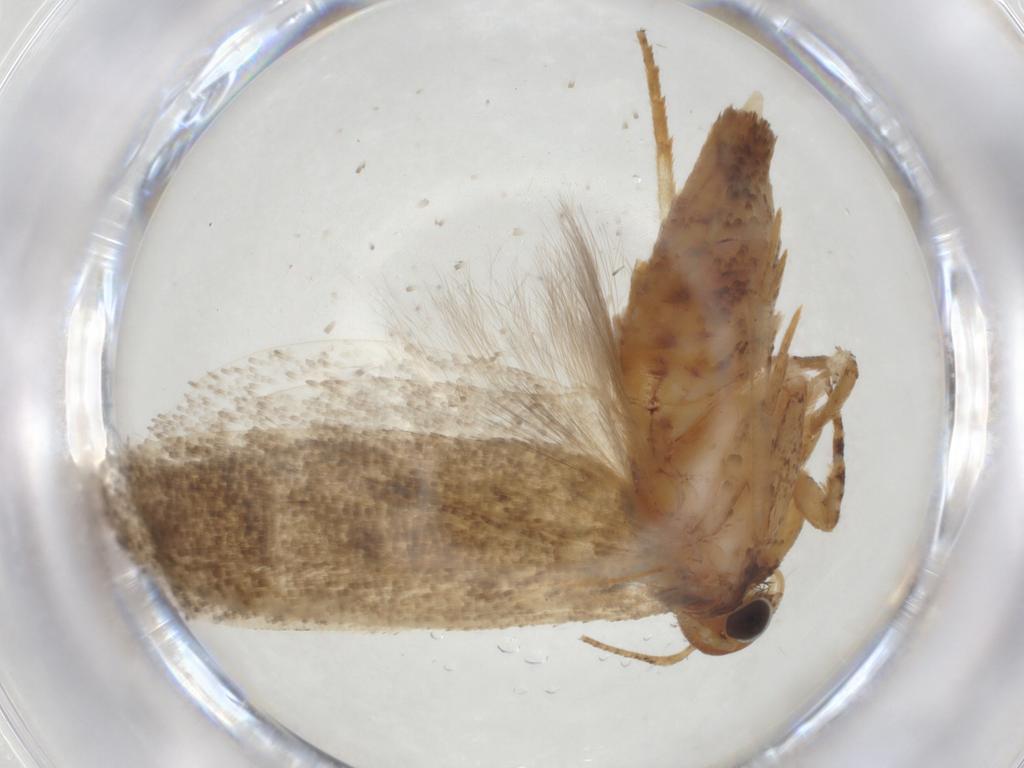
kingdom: Animalia
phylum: Arthropoda
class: Insecta
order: Lepidoptera
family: Gelechiidae
